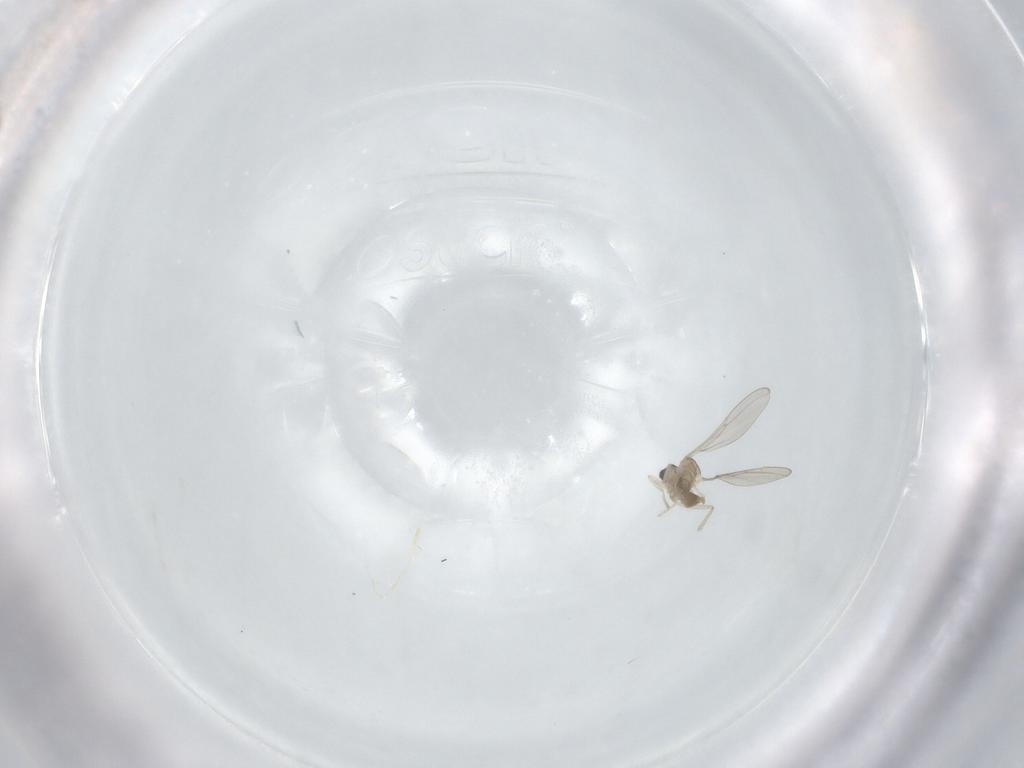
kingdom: Animalia
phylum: Arthropoda
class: Insecta
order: Diptera
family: Cecidomyiidae
